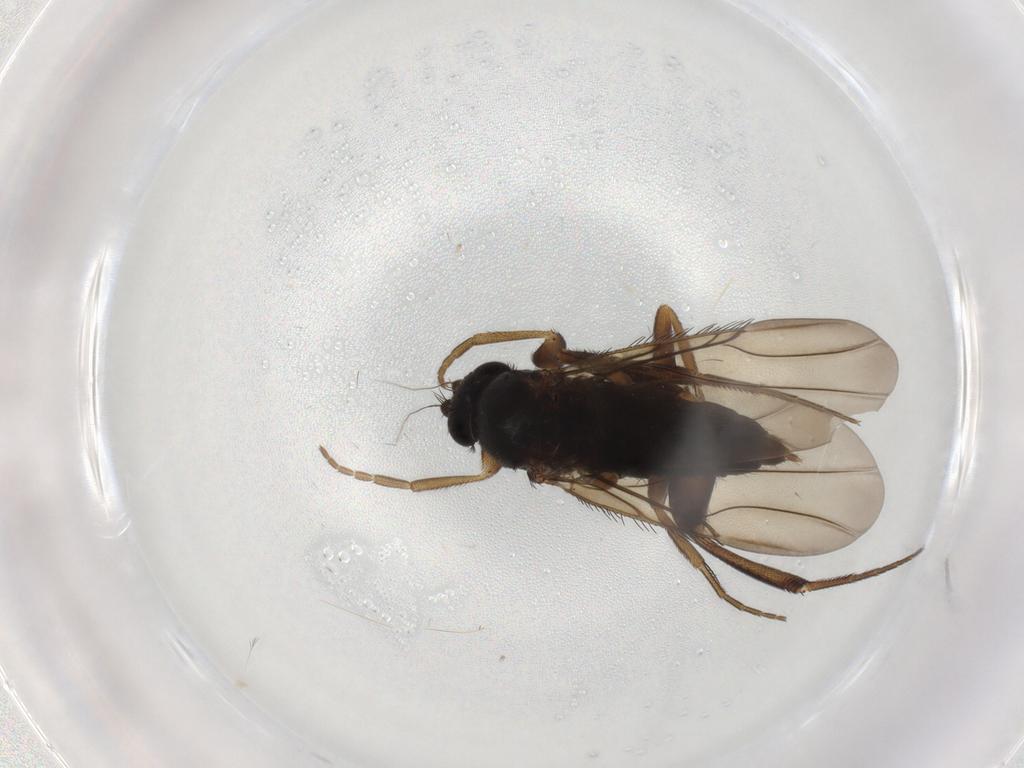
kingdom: Animalia
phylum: Arthropoda
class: Insecta
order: Diptera
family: Phoridae
